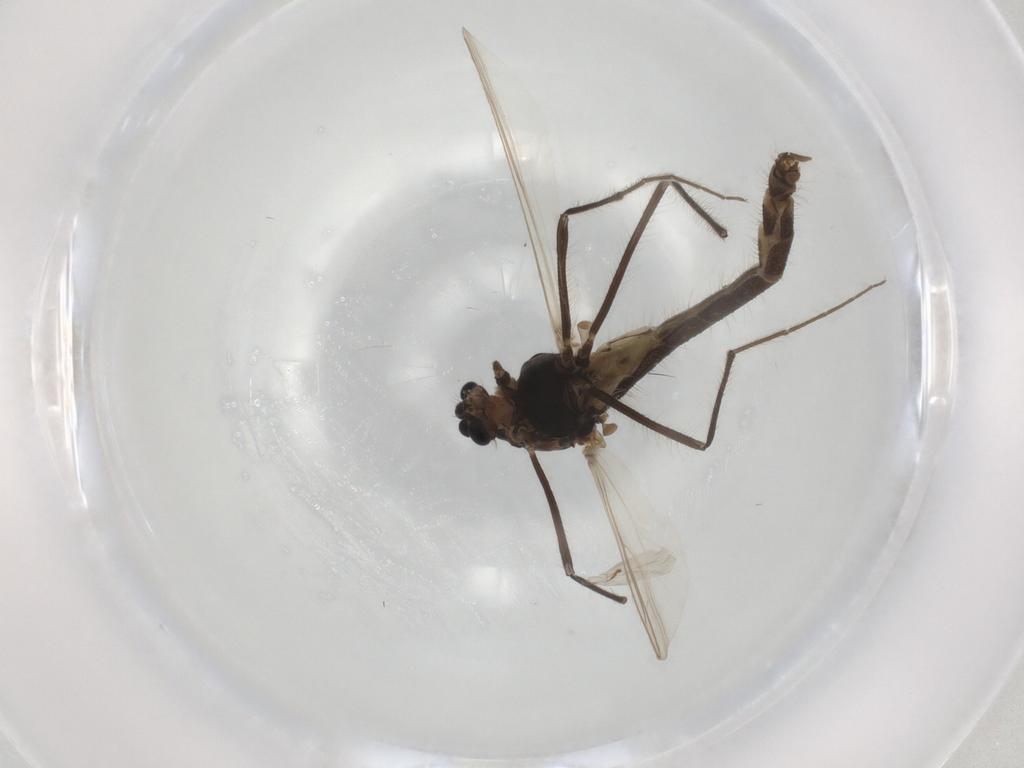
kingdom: Animalia
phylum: Arthropoda
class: Insecta
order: Diptera
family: Chironomidae
